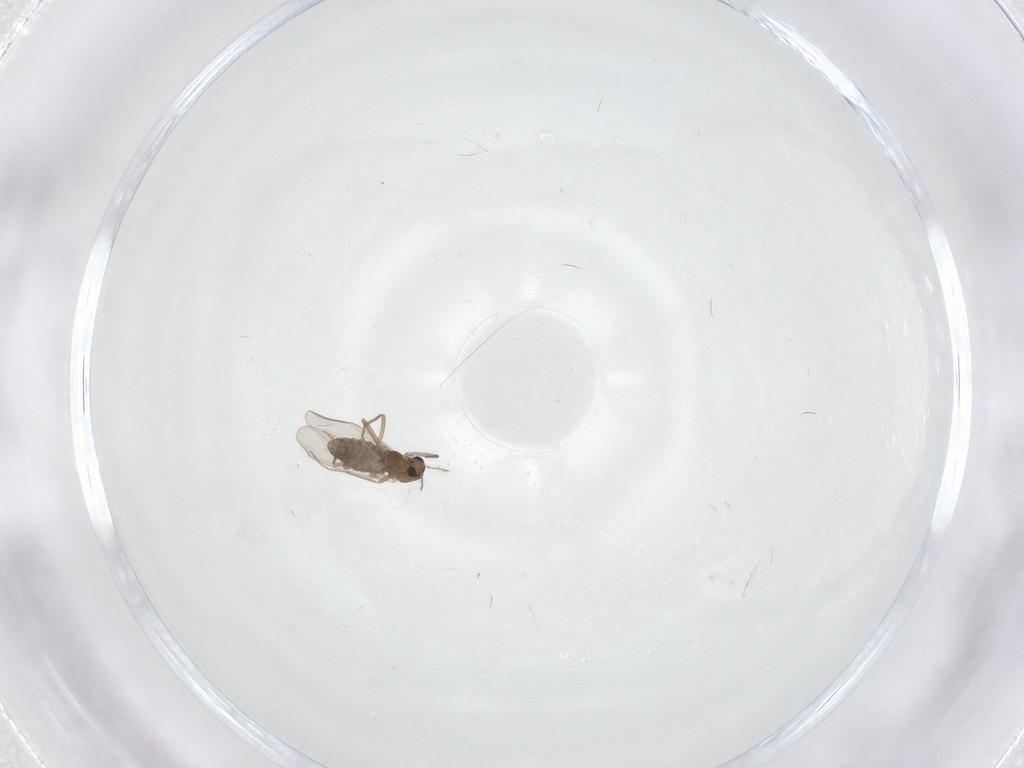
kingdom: Animalia
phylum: Arthropoda
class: Insecta
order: Diptera
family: Chironomidae
